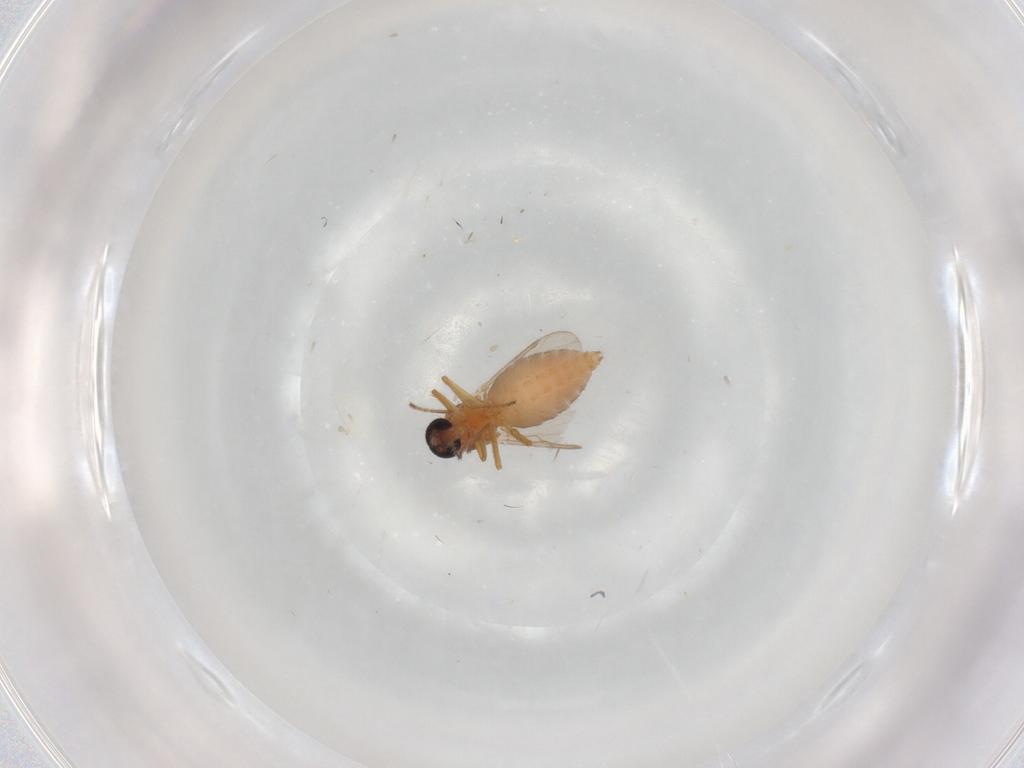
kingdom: Animalia
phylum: Arthropoda
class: Insecta
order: Diptera
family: Ceratopogonidae
